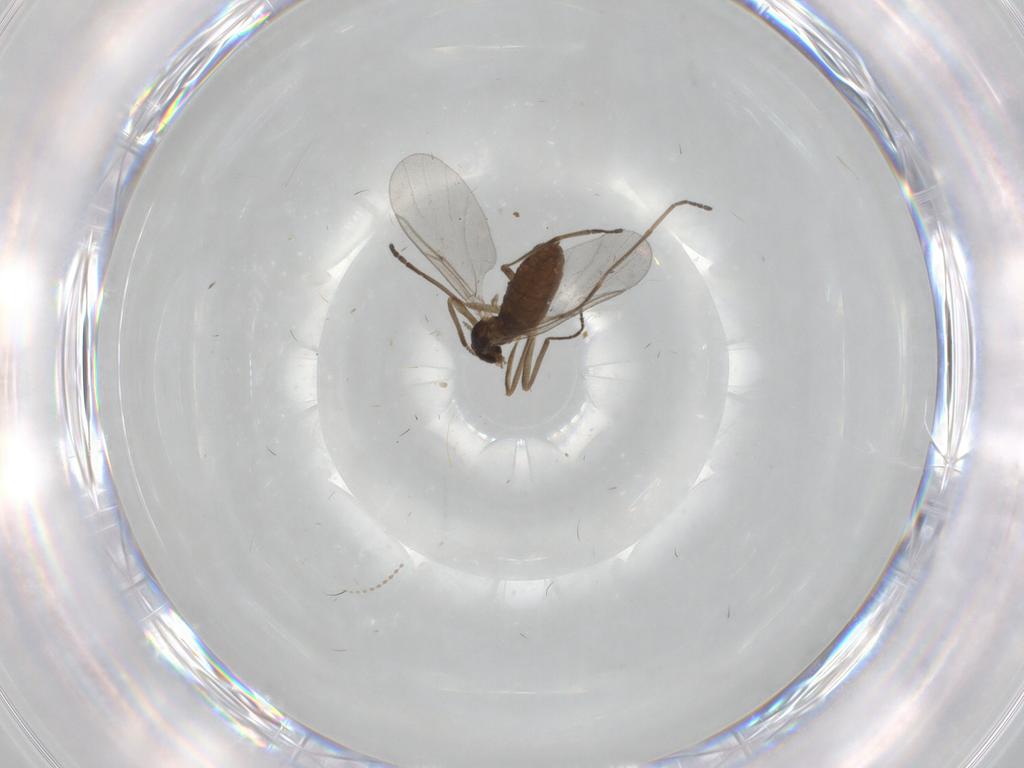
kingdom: Animalia
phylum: Arthropoda
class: Insecta
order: Diptera
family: Cecidomyiidae
